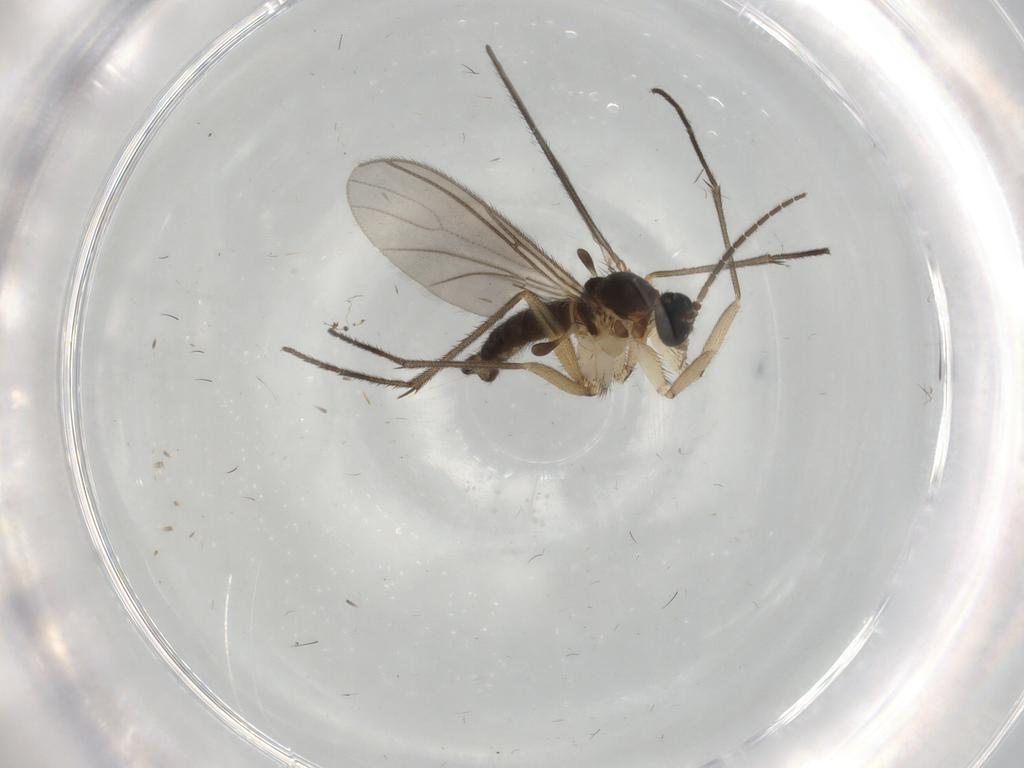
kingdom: Animalia
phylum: Arthropoda
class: Insecta
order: Diptera
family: Sciaridae
